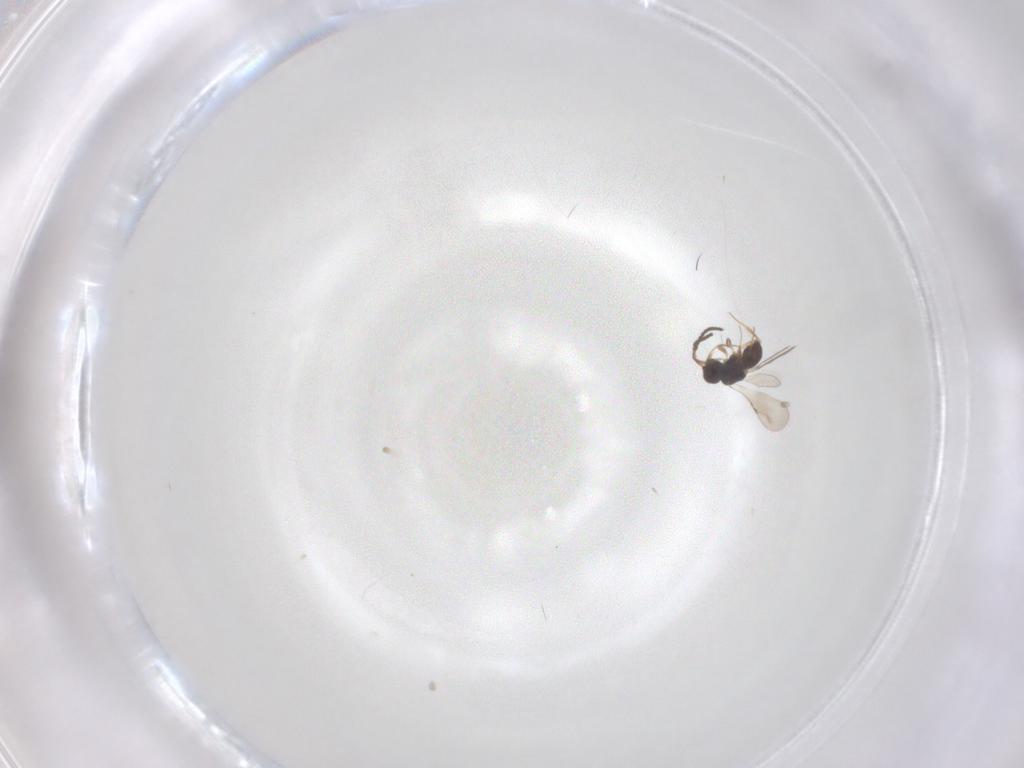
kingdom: Animalia
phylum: Arthropoda
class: Insecta
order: Hymenoptera
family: Ceraphronidae
